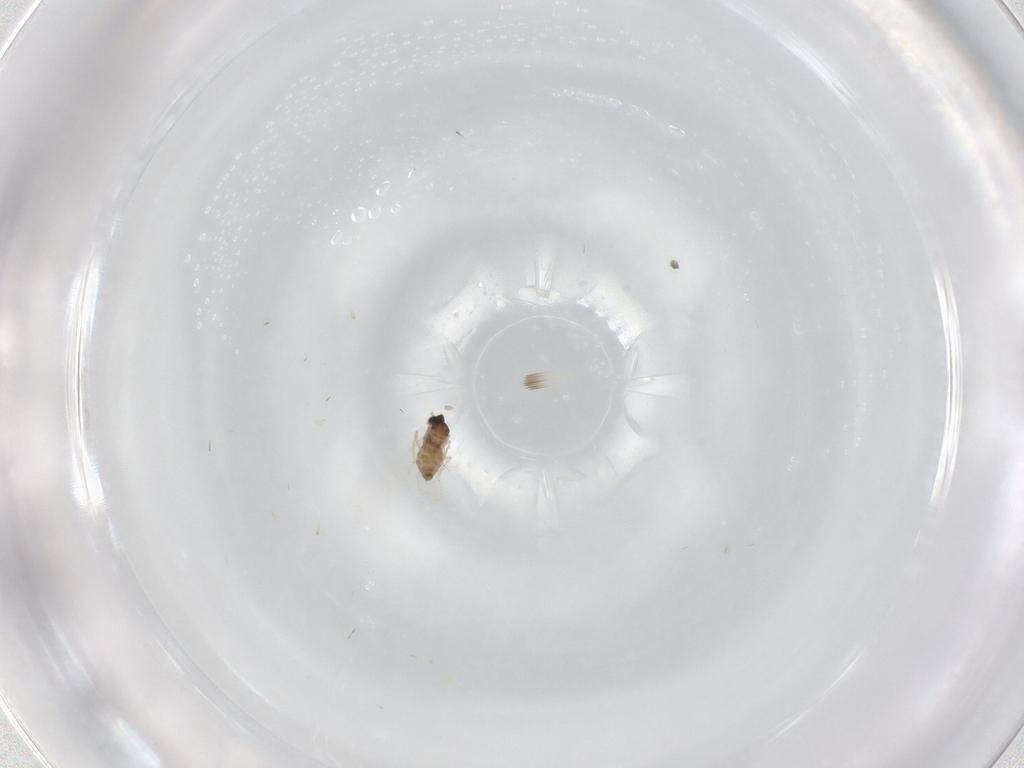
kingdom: Animalia
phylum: Arthropoda
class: Insecta
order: Diptera
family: Cecidomyiidae
